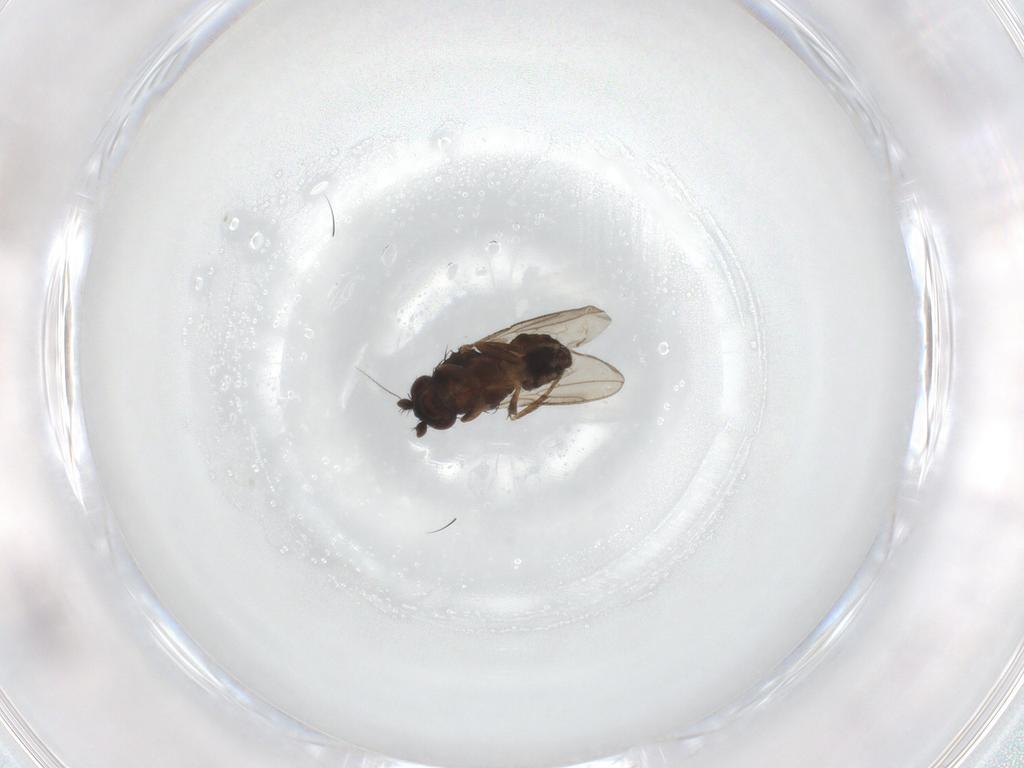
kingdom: Animalia
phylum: Arthropoda
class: Insecta
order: Diptera
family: Sphaeroceridae
